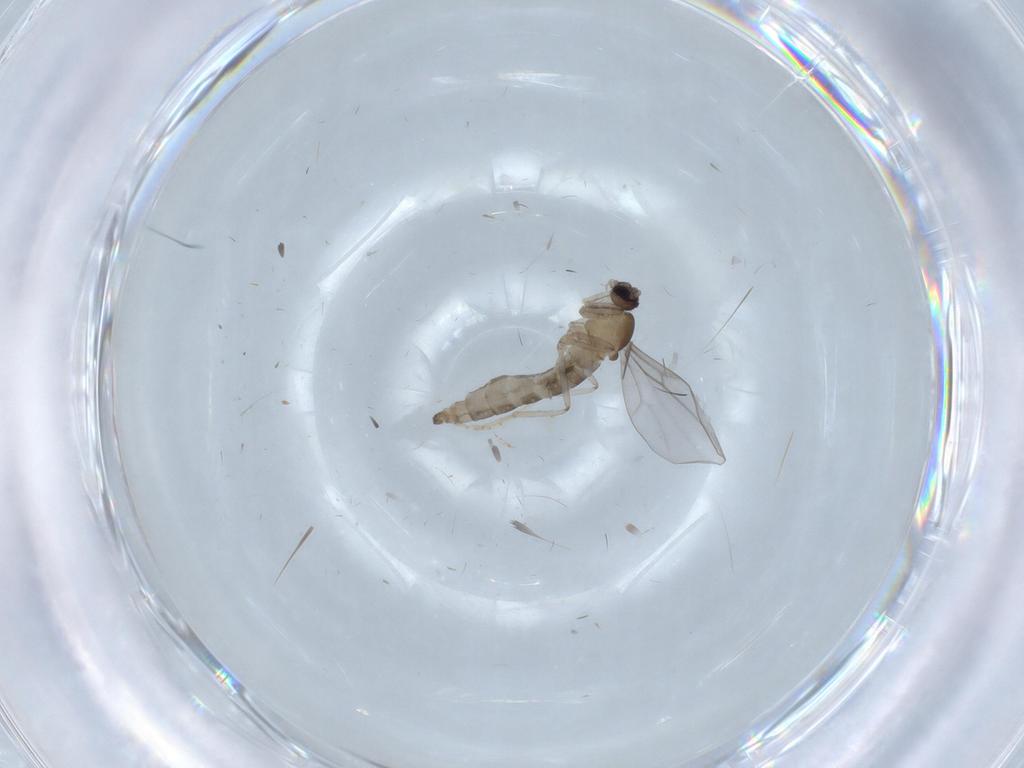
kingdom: Animalia
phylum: Arthropoda
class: Insecta
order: Diptera
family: Cecidomyiidae
